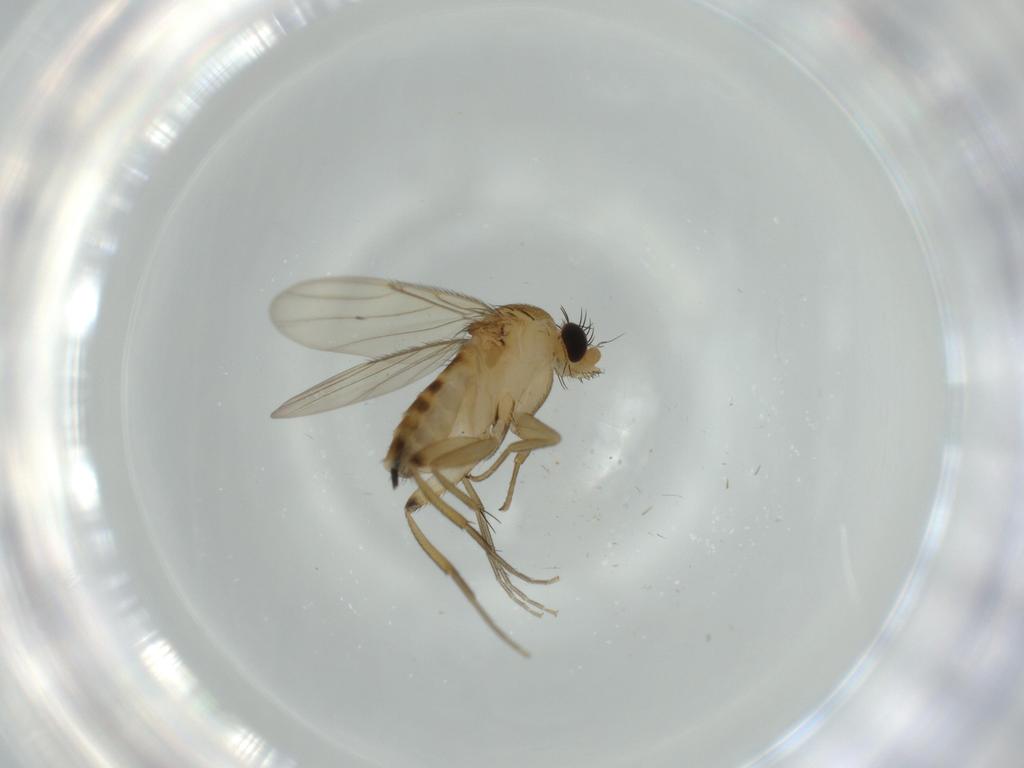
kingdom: Animalia
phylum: Arthropoda
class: Insecta
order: Diptera
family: Phoridae
